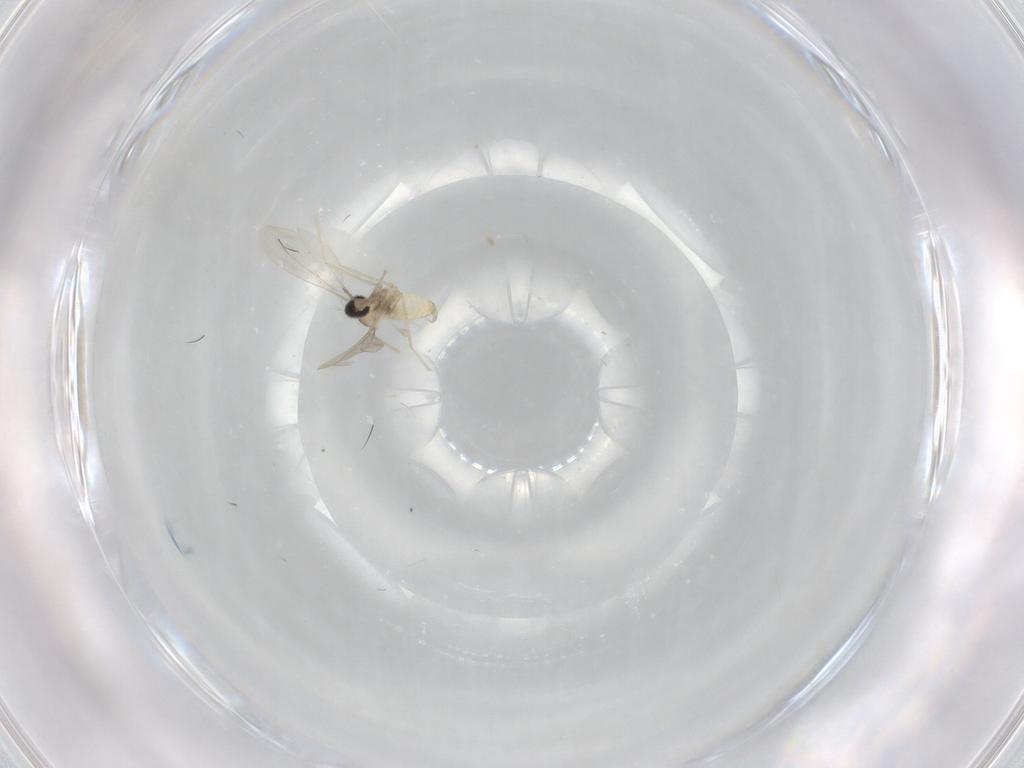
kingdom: Animalia
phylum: Arthropoda
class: Insecta
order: Diptera
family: Cecidomyiidae
